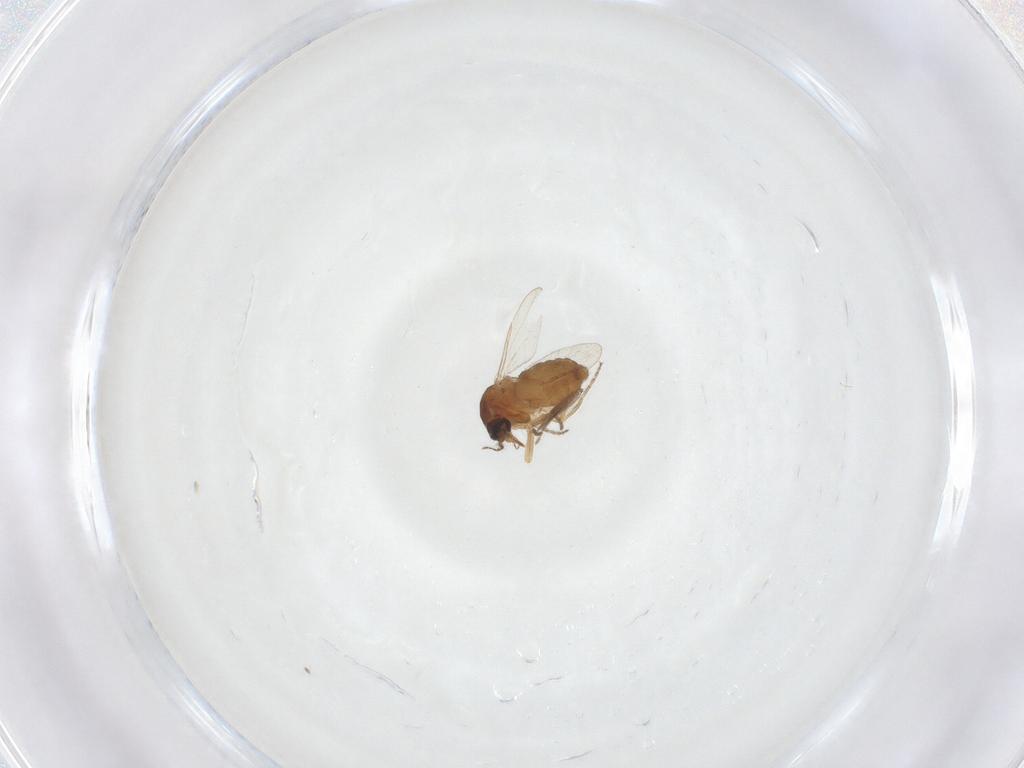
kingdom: Animalia
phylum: Arthropoda
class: Insecta
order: Diptera
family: Ceratopogonidae
